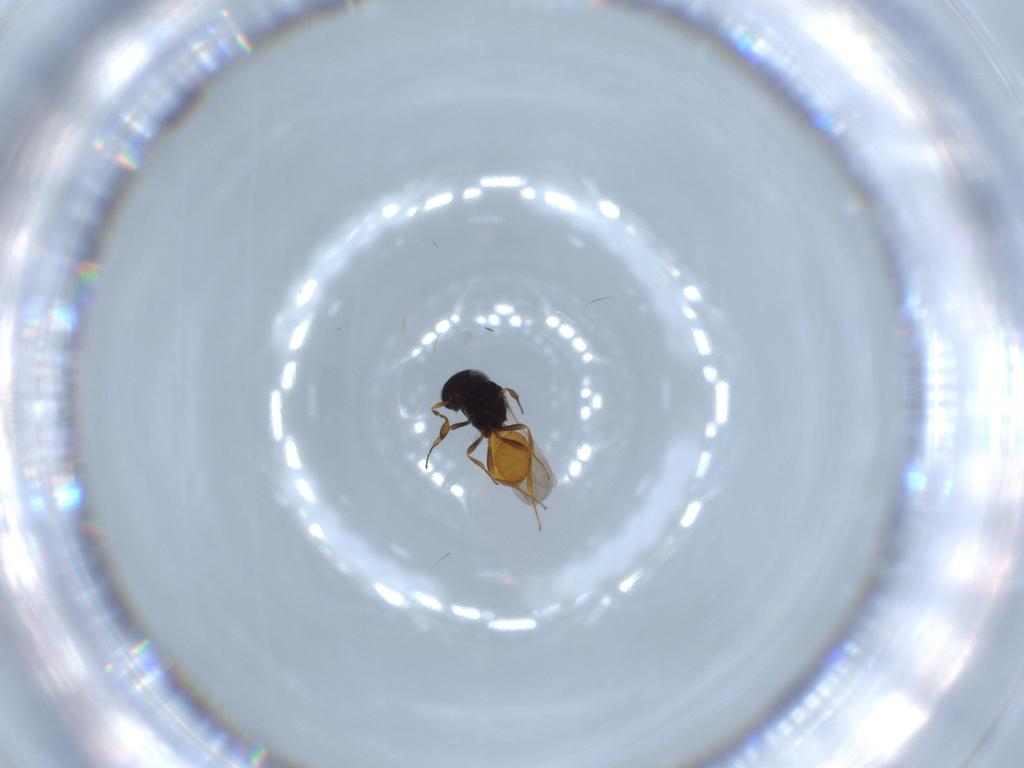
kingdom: Animalia
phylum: Arthropoda
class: Insecta
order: Hymenoptera
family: Scelionidae
